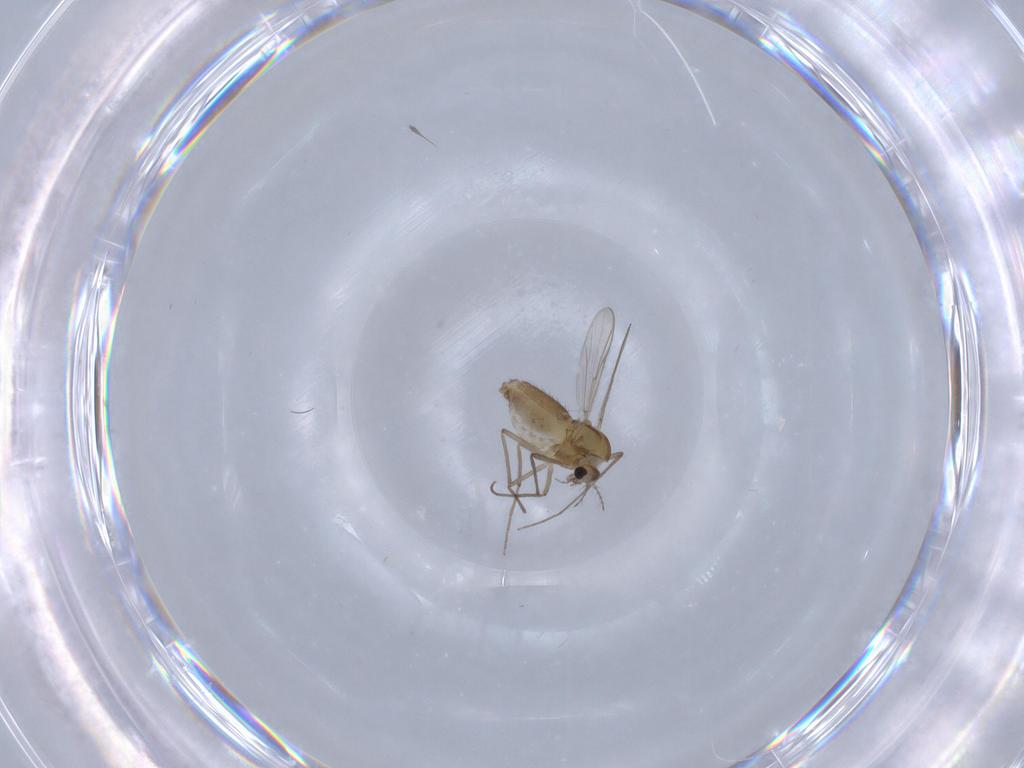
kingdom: Animalia
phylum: Arthropoda
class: Insecta
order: Diptera
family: Chironomidae
